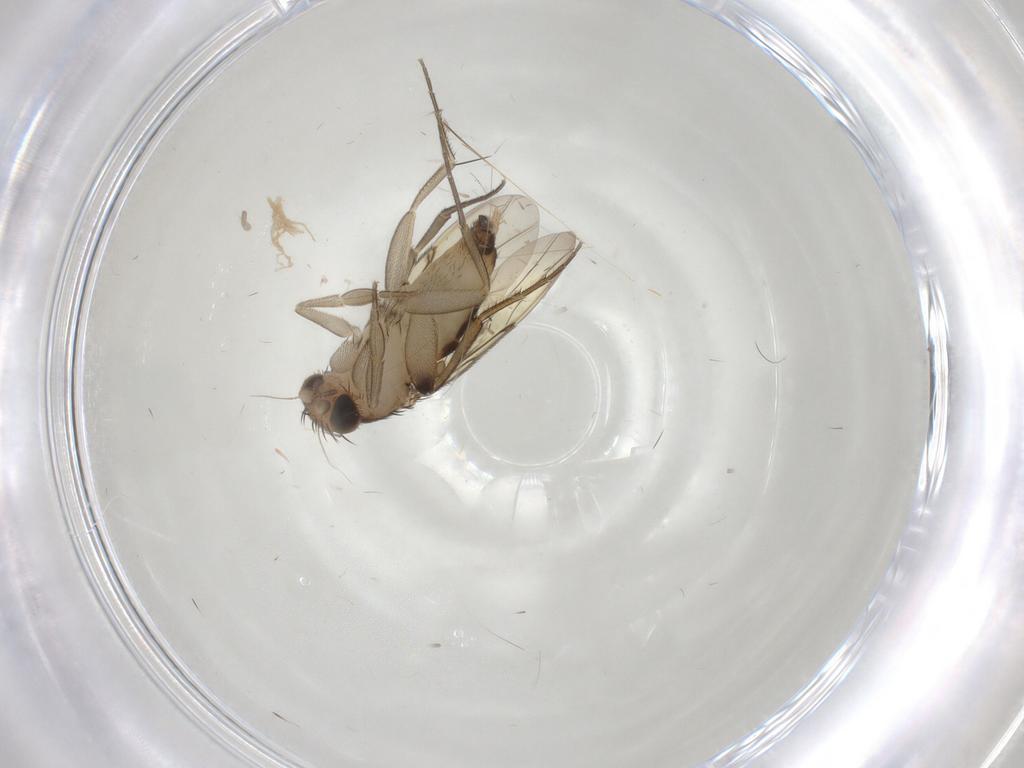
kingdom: Animalia
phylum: Arthropoda
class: Insecta
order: Diptera
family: Phoridae
